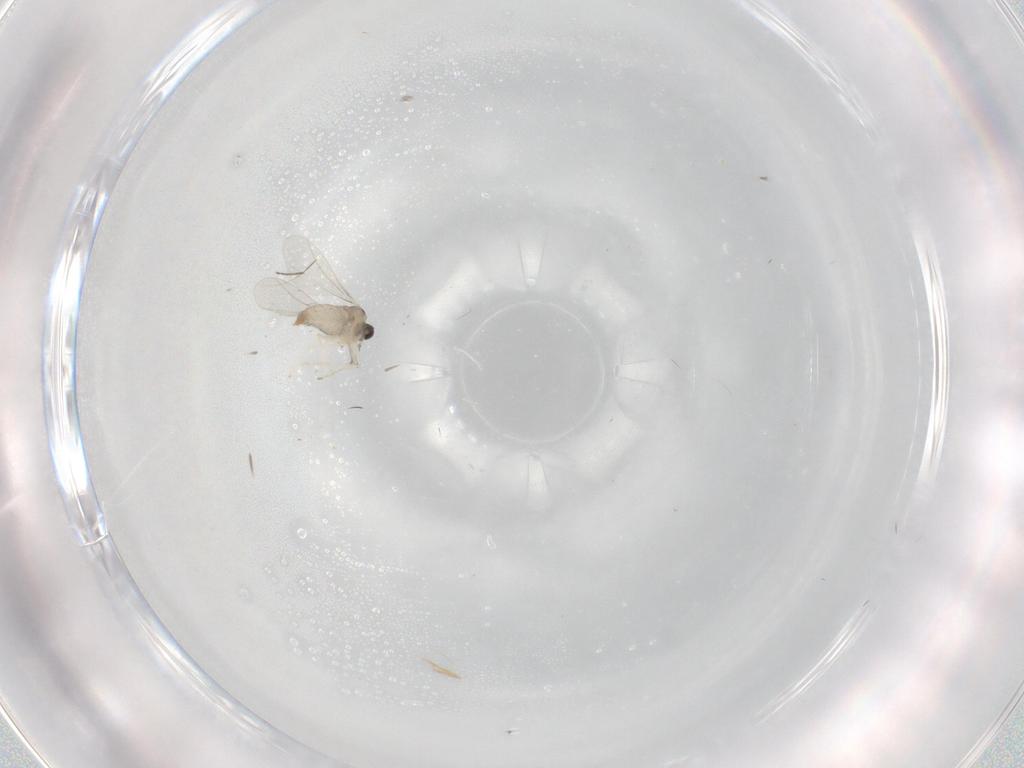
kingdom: Animalia
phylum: Arthropoda
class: Insecta
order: Diptera
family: Cecidomyiidae
